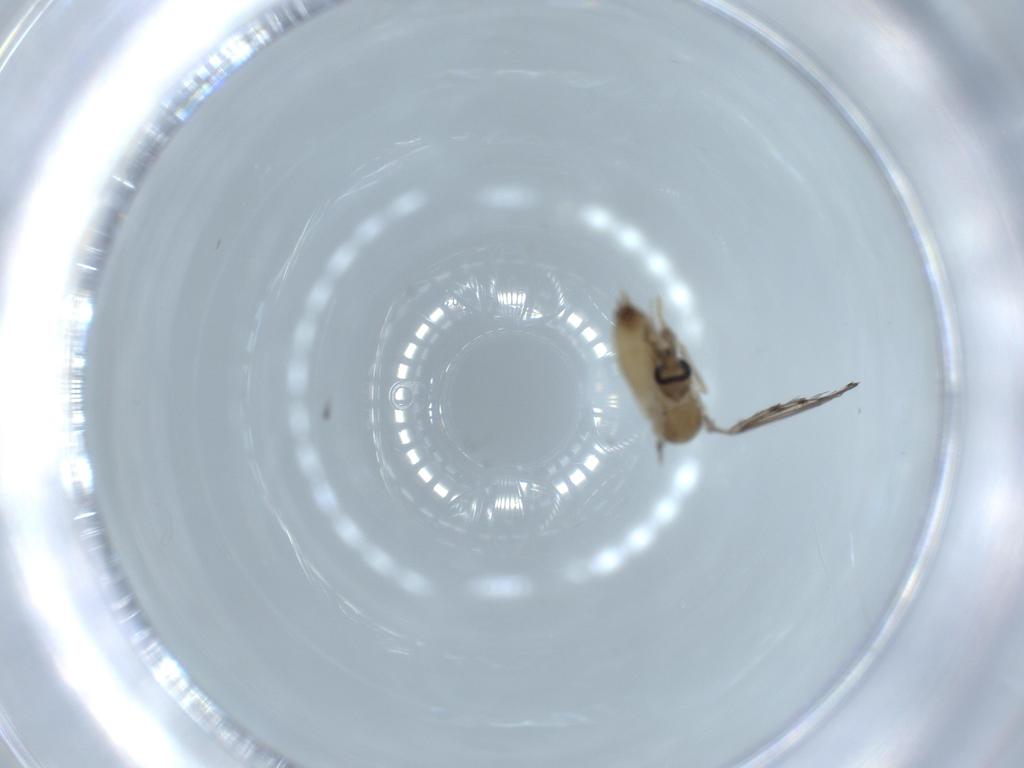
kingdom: Animalia
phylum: Arthropoda
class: Insecta
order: Diptera
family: Psychodidae
